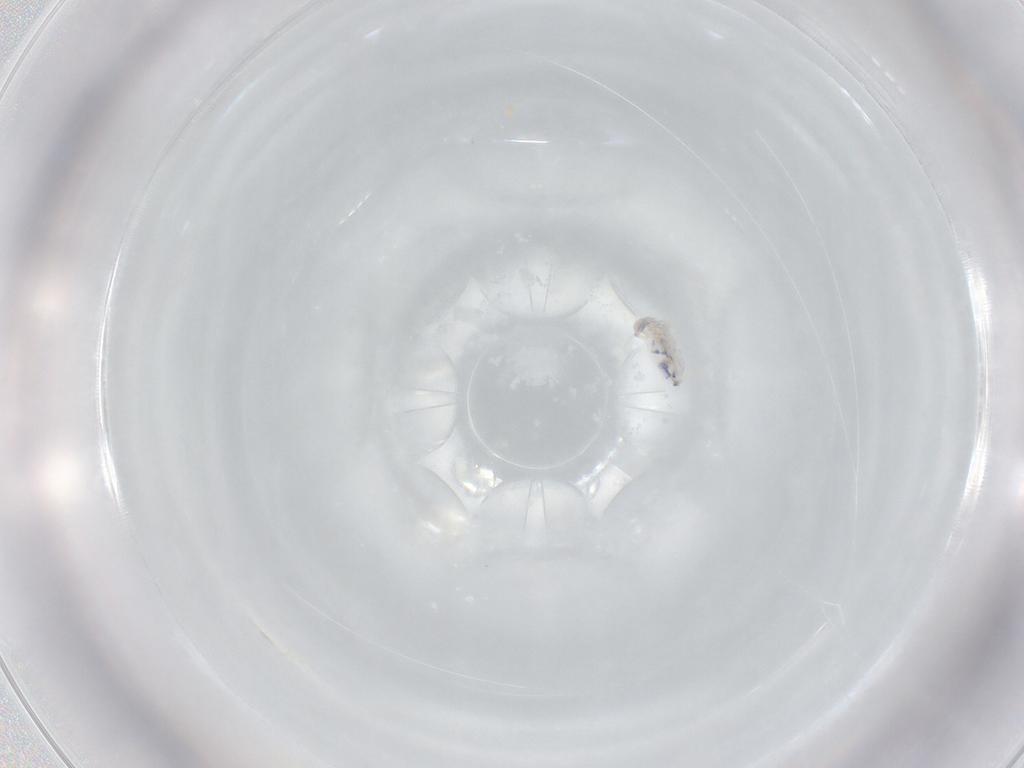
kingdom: Animalia
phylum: Arthropoda
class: Collembola
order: Entomobryomorpha
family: Entomobryidae
